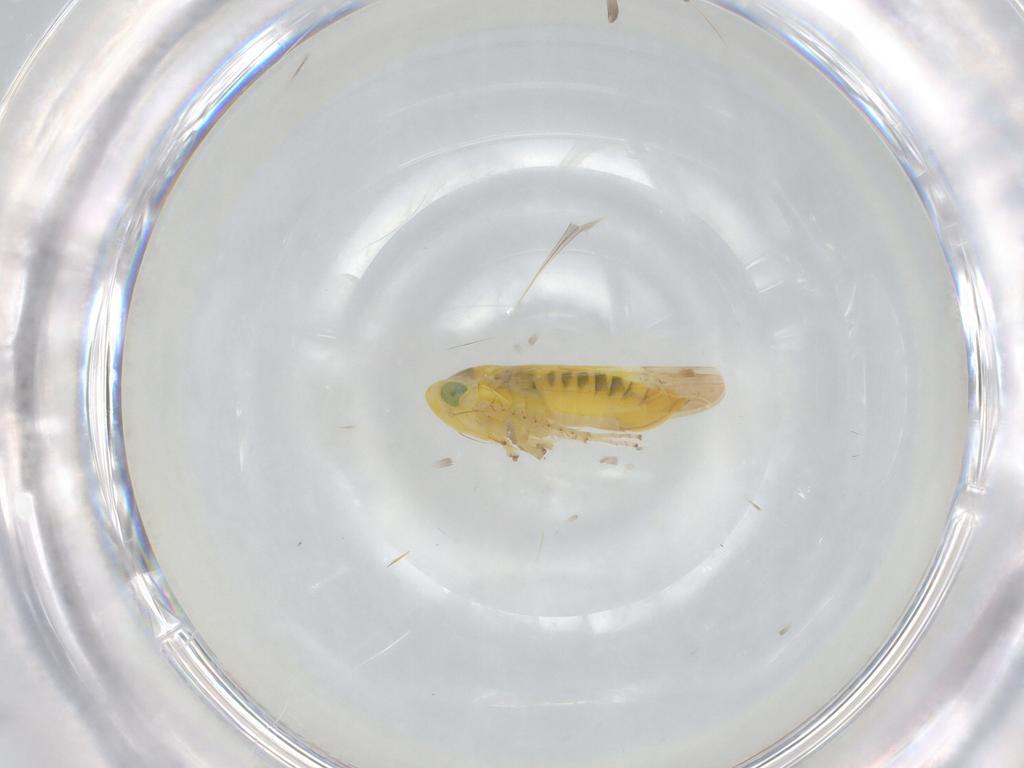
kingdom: Animalia
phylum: Arthropoda
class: Insecta
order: Hemiptera
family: Cicadellidae
